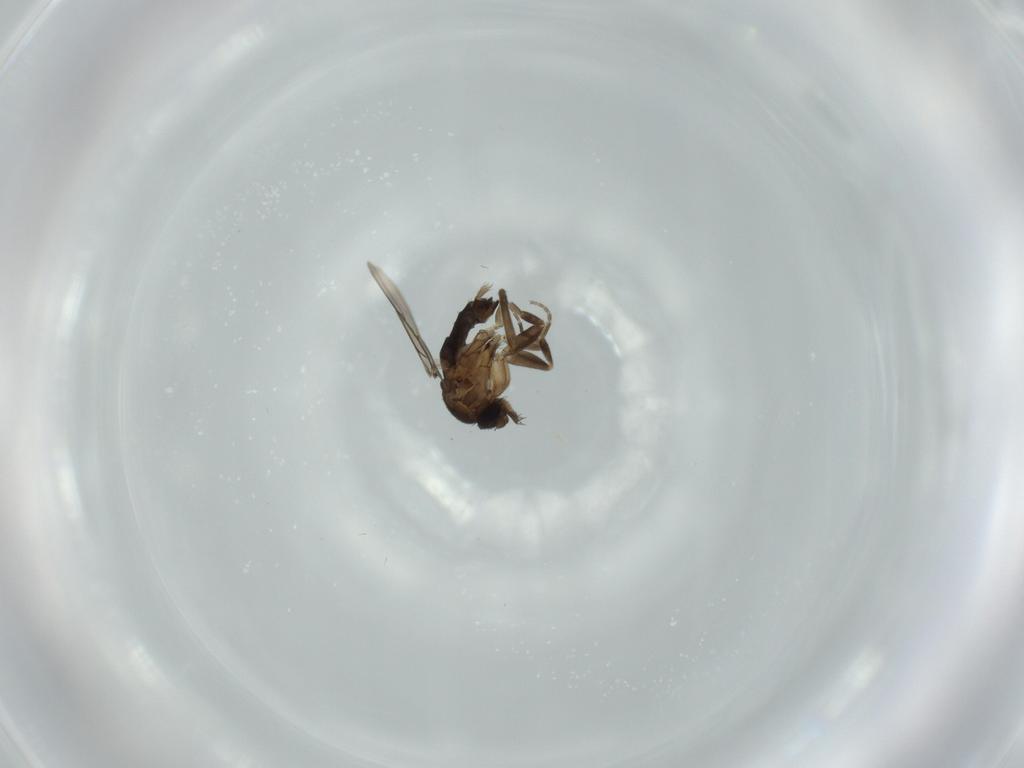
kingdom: Animalia
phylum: Arthropoda
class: Insecta
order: Diptera
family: Phoridae
